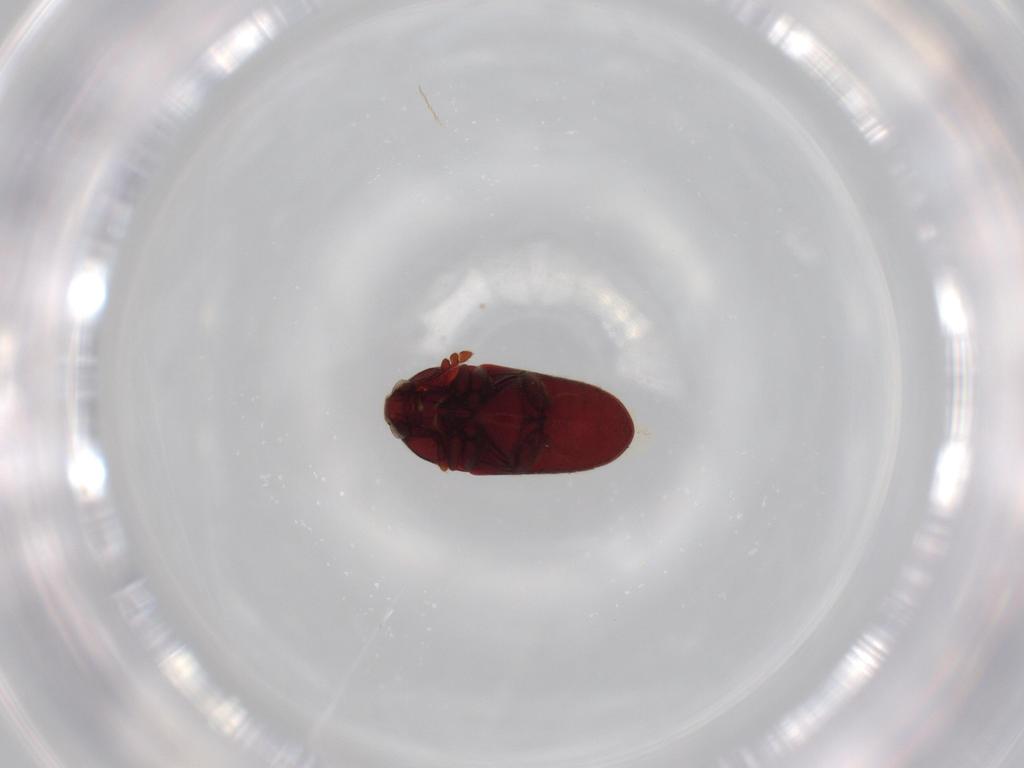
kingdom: Animalia
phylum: Arthropoda
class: Insecta
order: Coleoptera
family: Throscidae
